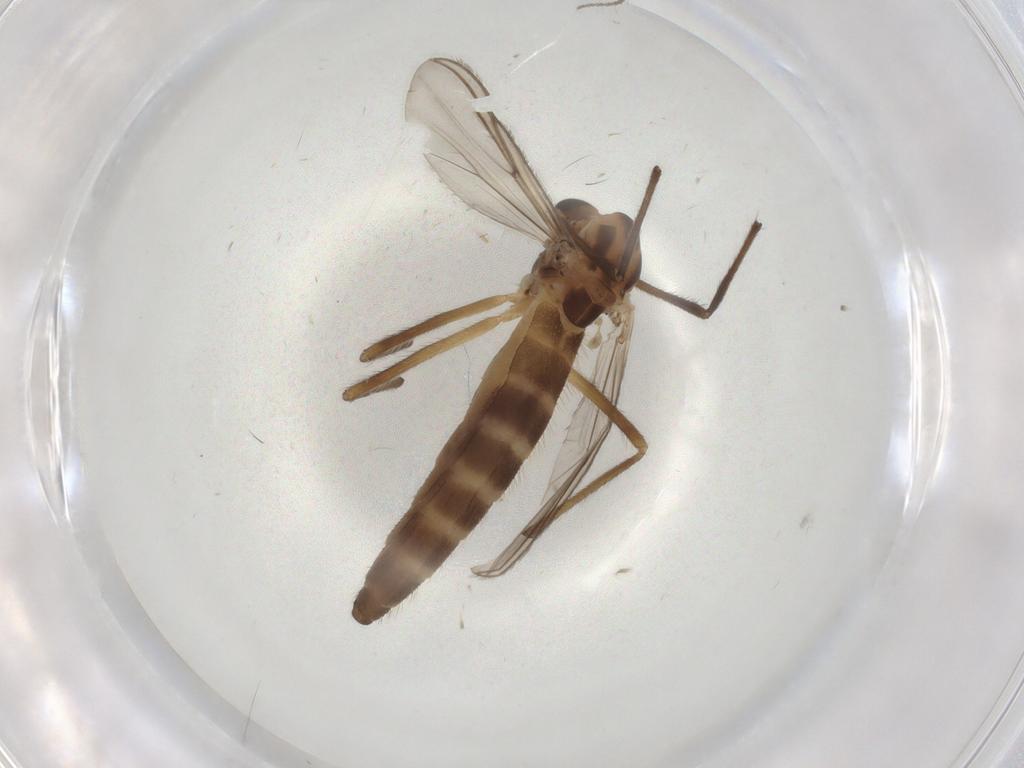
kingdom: Animalia
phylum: Arthropoda
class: Insecta
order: Diptera
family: Chironomidae
